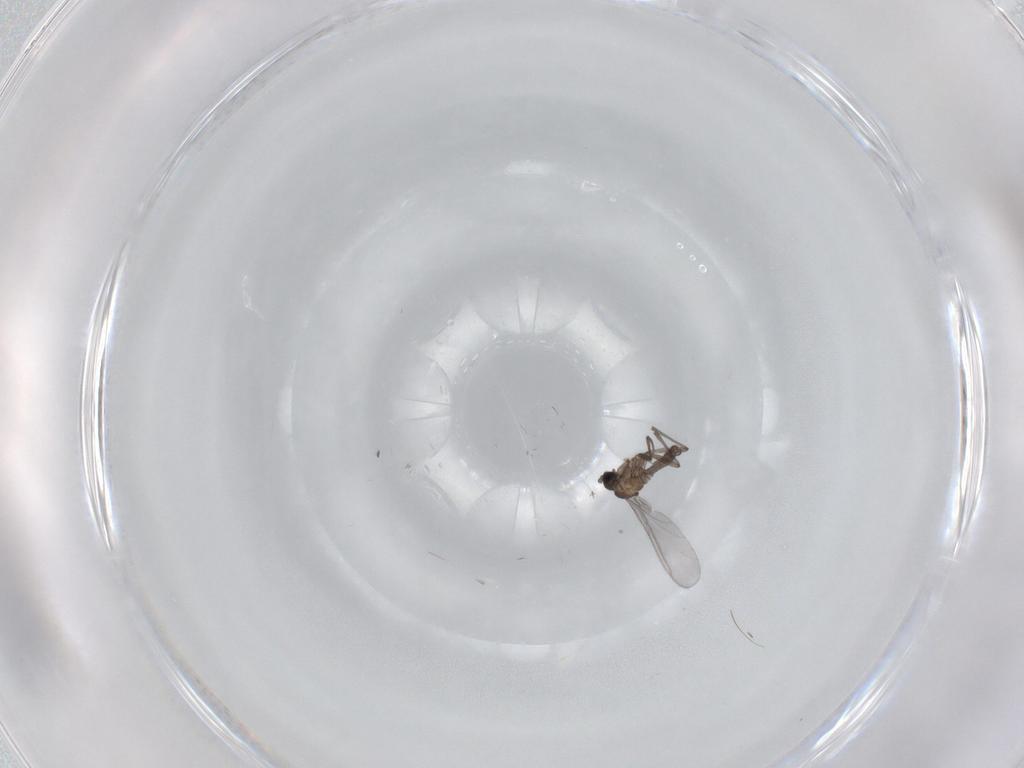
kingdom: Animalia
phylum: Arthropoda
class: Insecta
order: Diptera
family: Sciaridae
